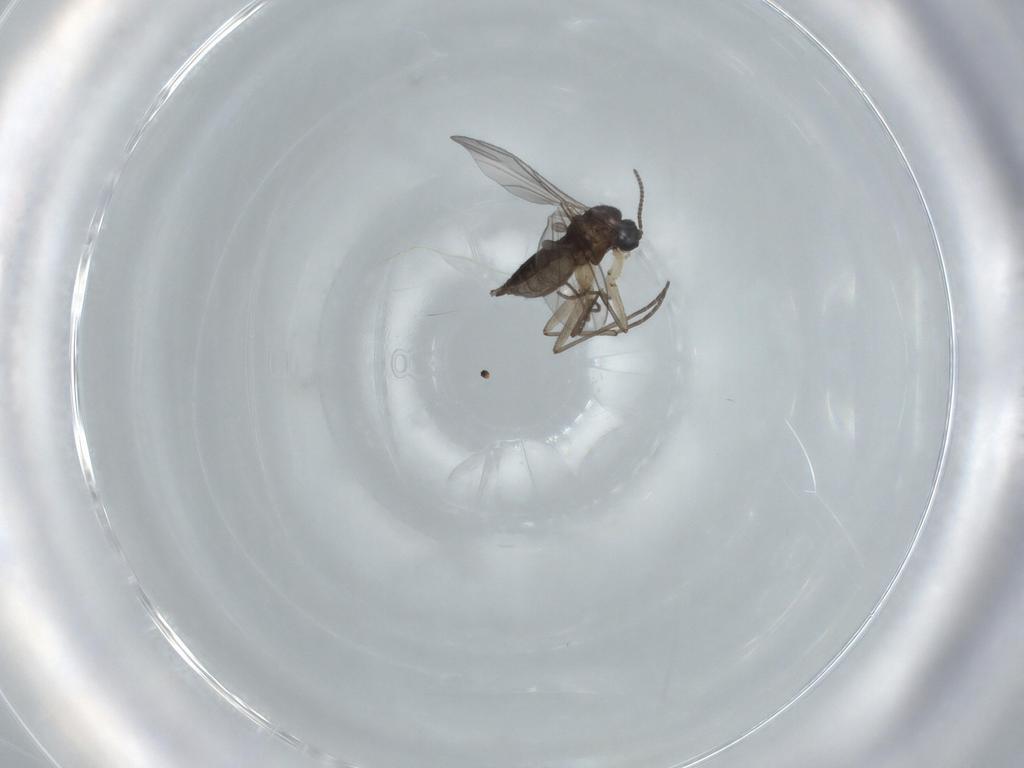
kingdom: Animalia
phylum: Arthropoda
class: Insecta
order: Diptera
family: Sciaridae
